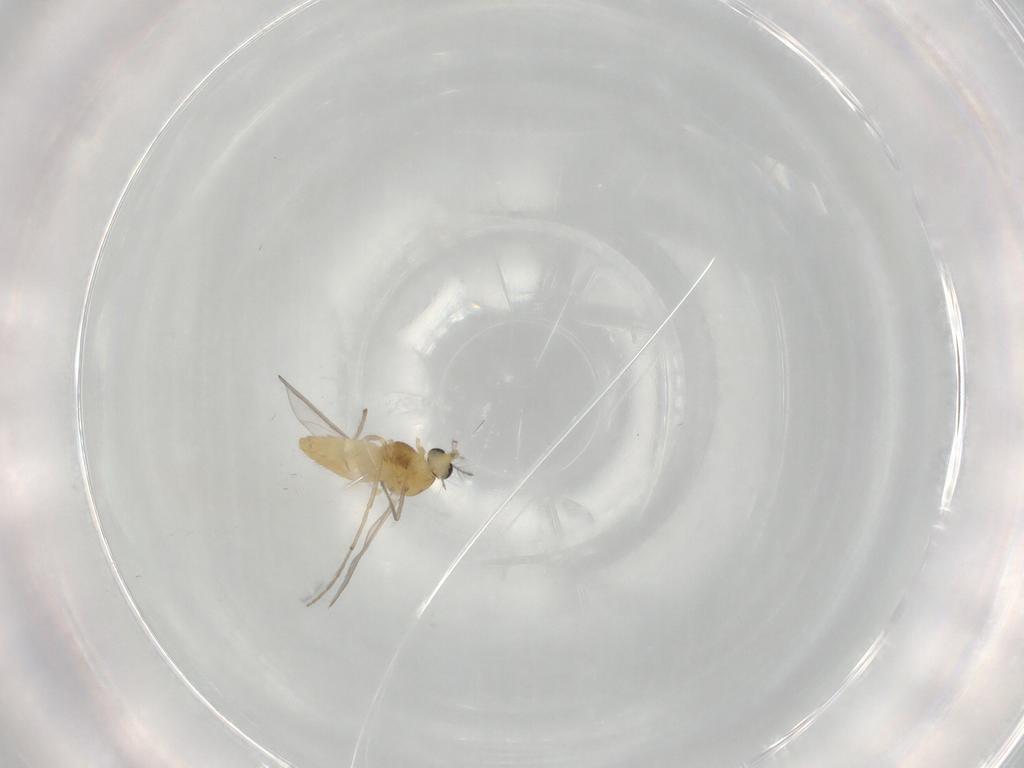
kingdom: Animalia
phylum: Arthropoda
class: Insecta
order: Diptera
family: Chironomidae
